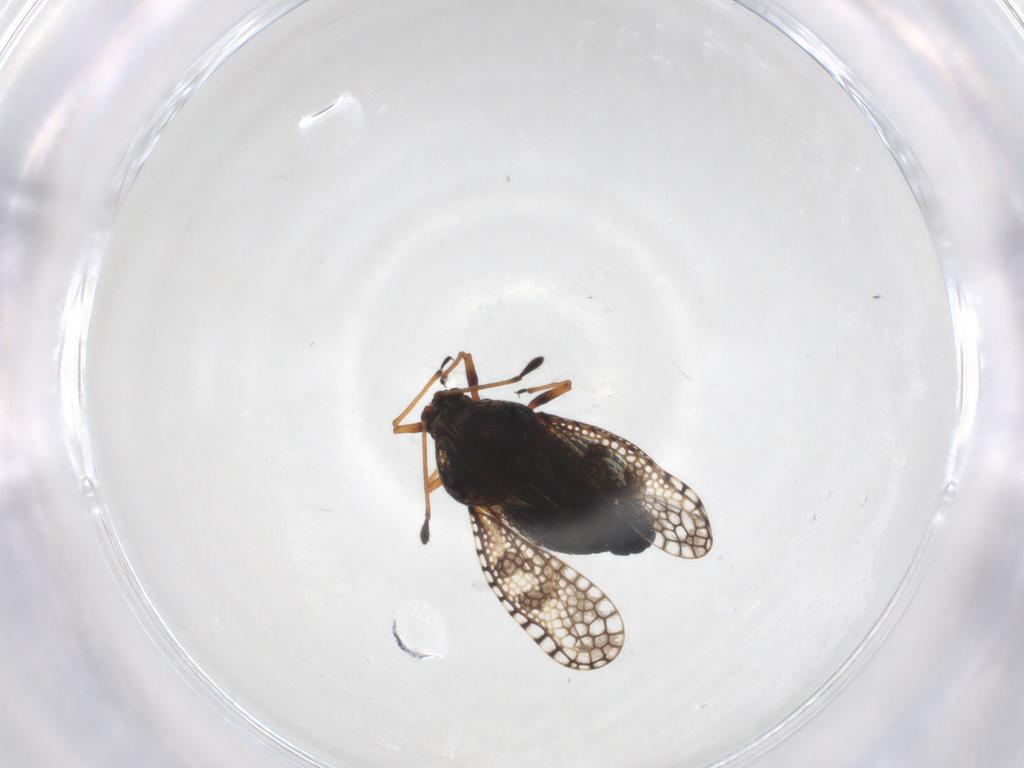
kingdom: Animalia
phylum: Arthropoda
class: Insecta
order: Hemiptera
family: Tingidae
